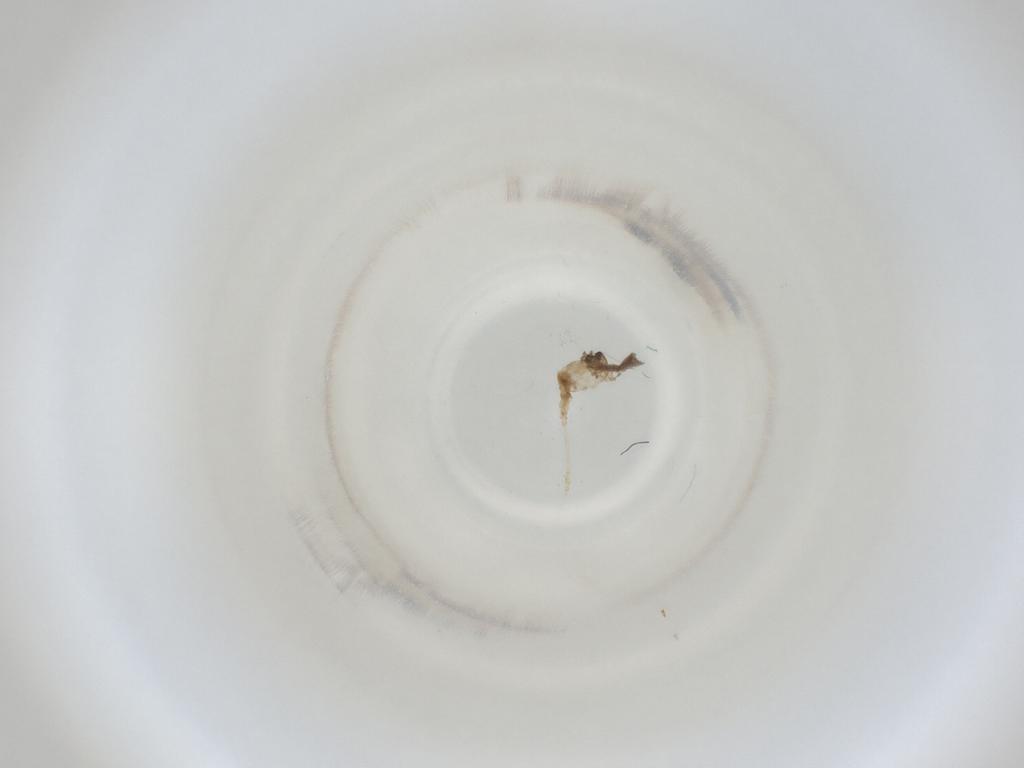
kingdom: Animalia
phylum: Arthropoda
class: Insecta
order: Diptera
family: Cecidomyiidae
